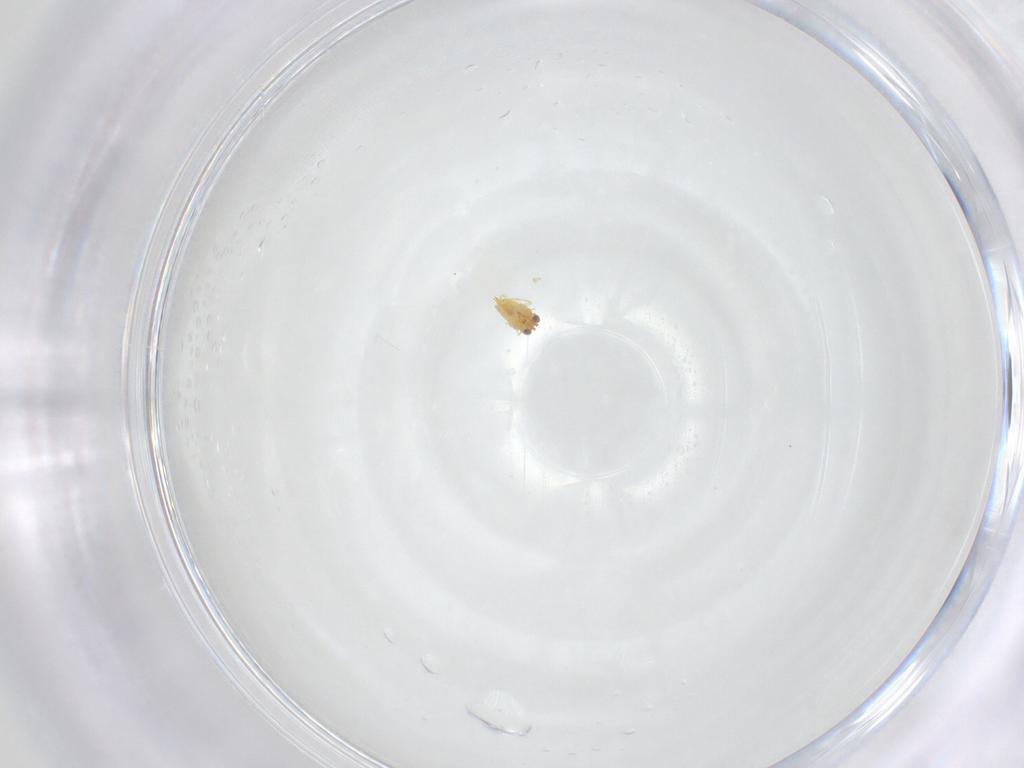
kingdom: Animalia
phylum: Arthropoda
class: Insecta
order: Hymenoptera
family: Aphelinidae
